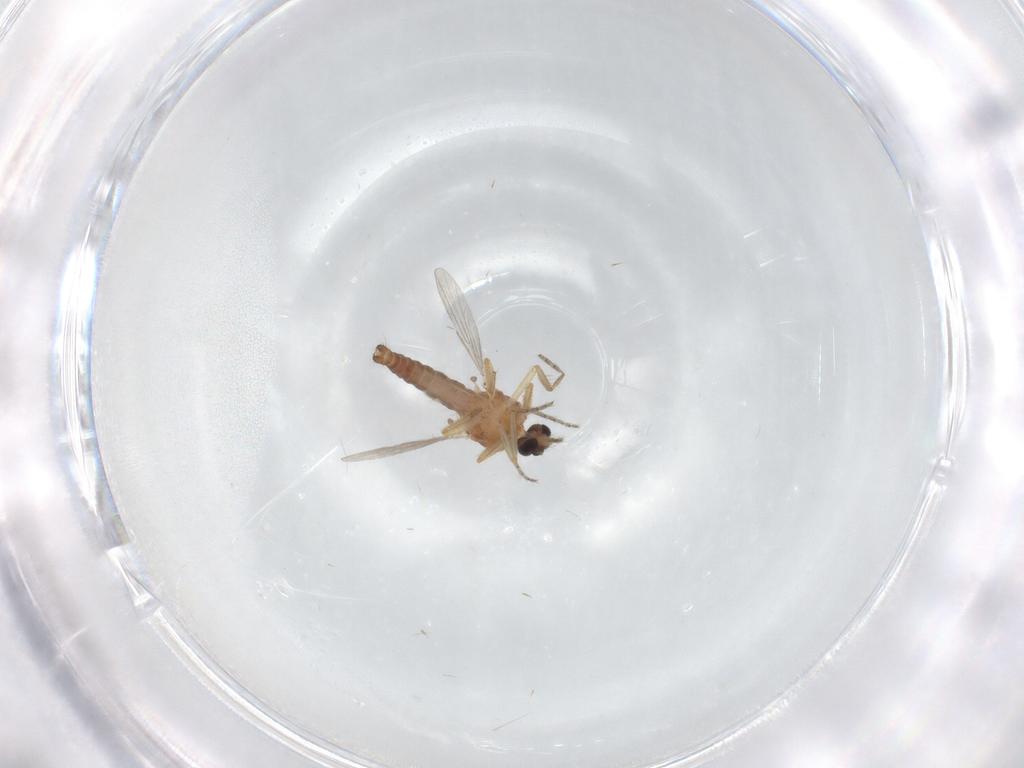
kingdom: Animalia
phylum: Arthropoda
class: Insecta
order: Diptera
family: Ceratopogonidae
